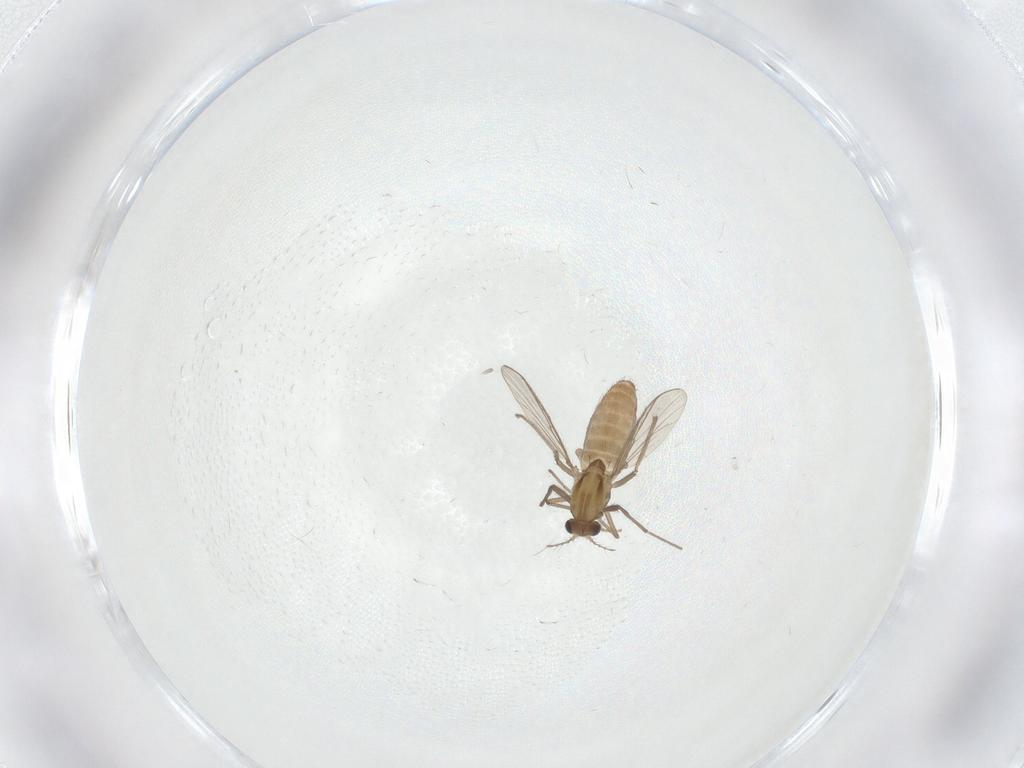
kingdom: Animalia
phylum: Arthropoda
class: Insecta
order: Diptera
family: Chironomidae
